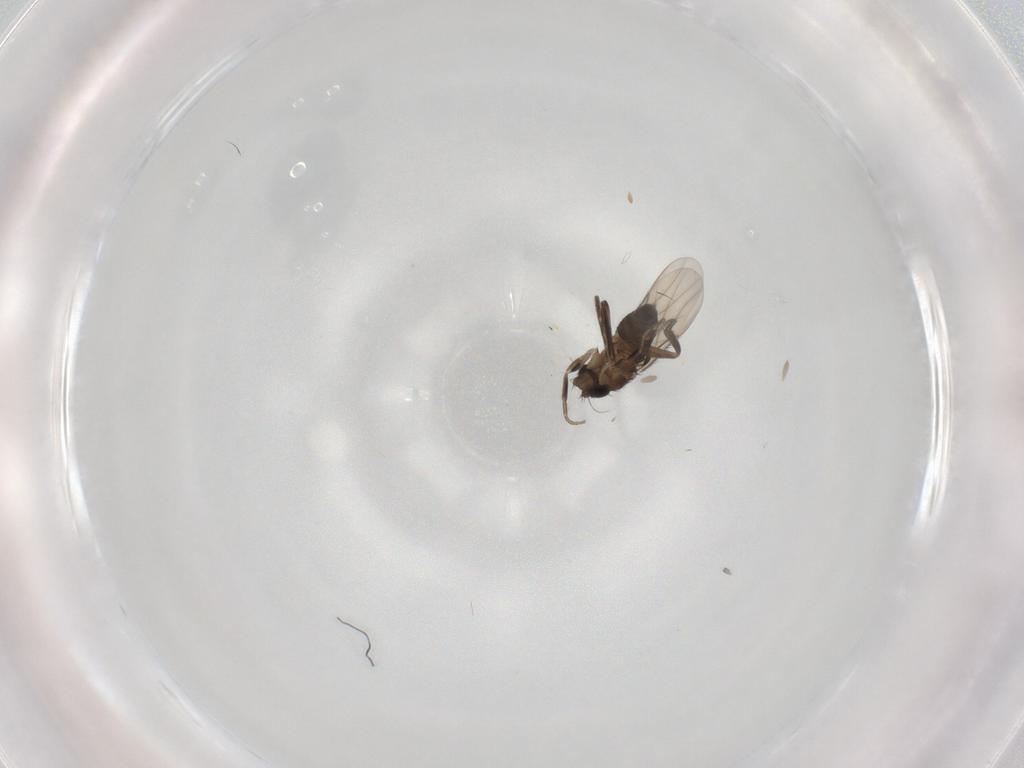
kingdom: Animalia
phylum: Arthropoda
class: Insecta
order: Diptera
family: Phoridae
